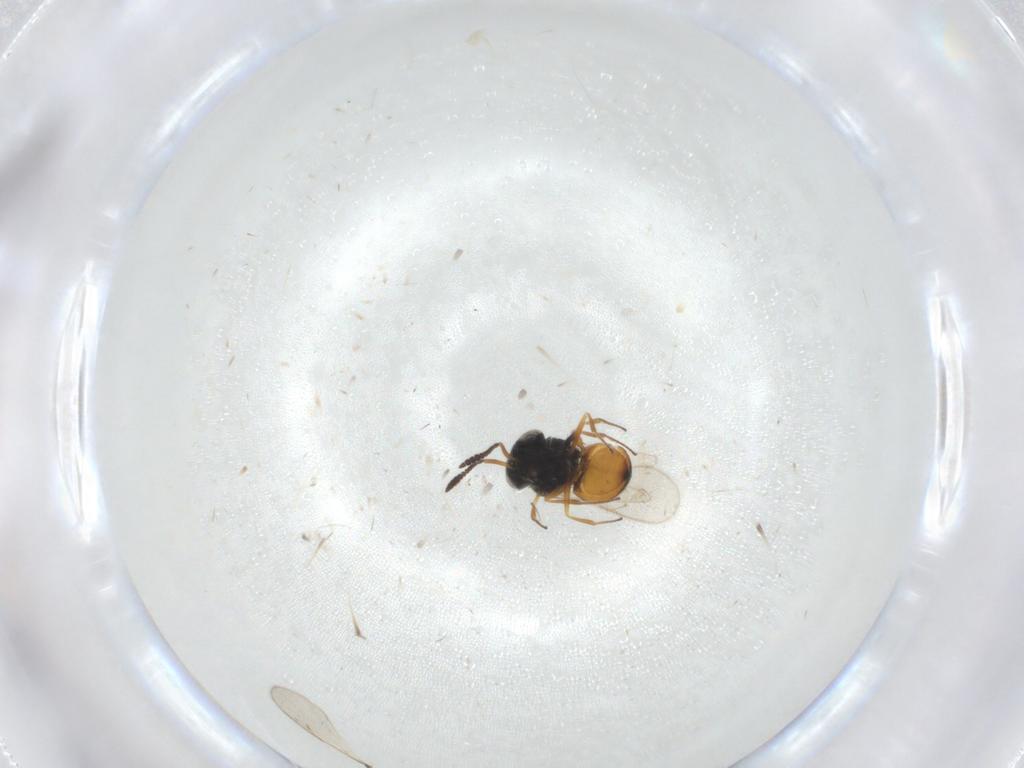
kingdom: Animalia
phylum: Arthropoda
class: Insecta
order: Hymenoptera
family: Scelionidae
